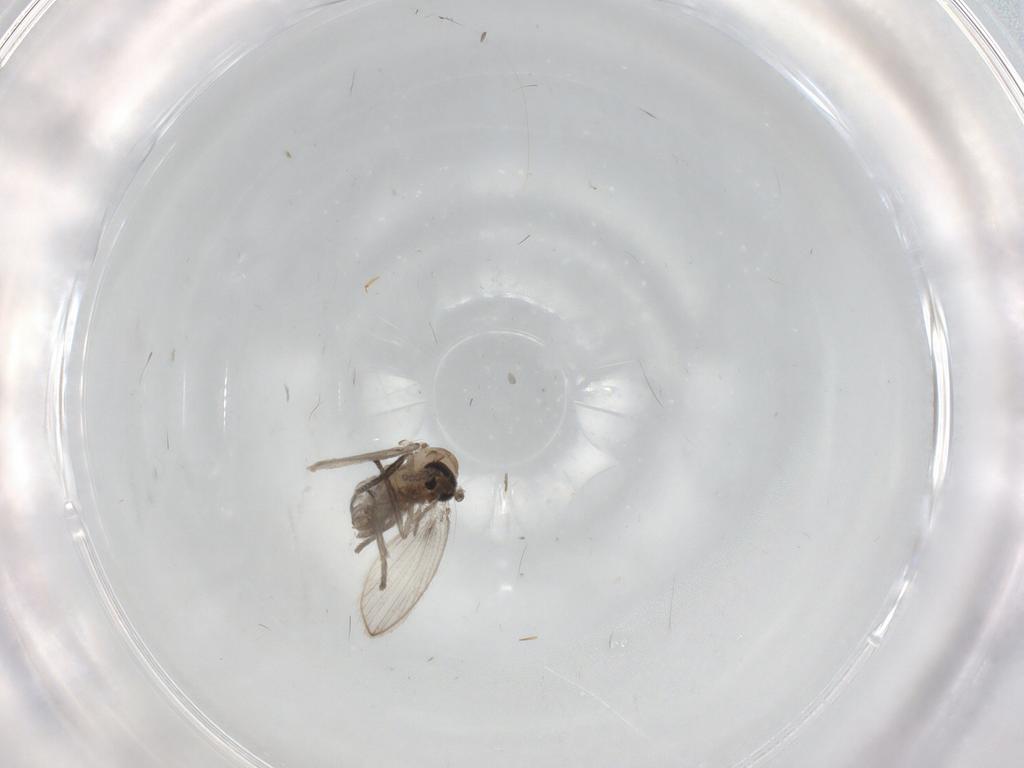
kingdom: Animalia
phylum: Arthropoda
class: Insecta
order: Diptera
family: Psychodidae
